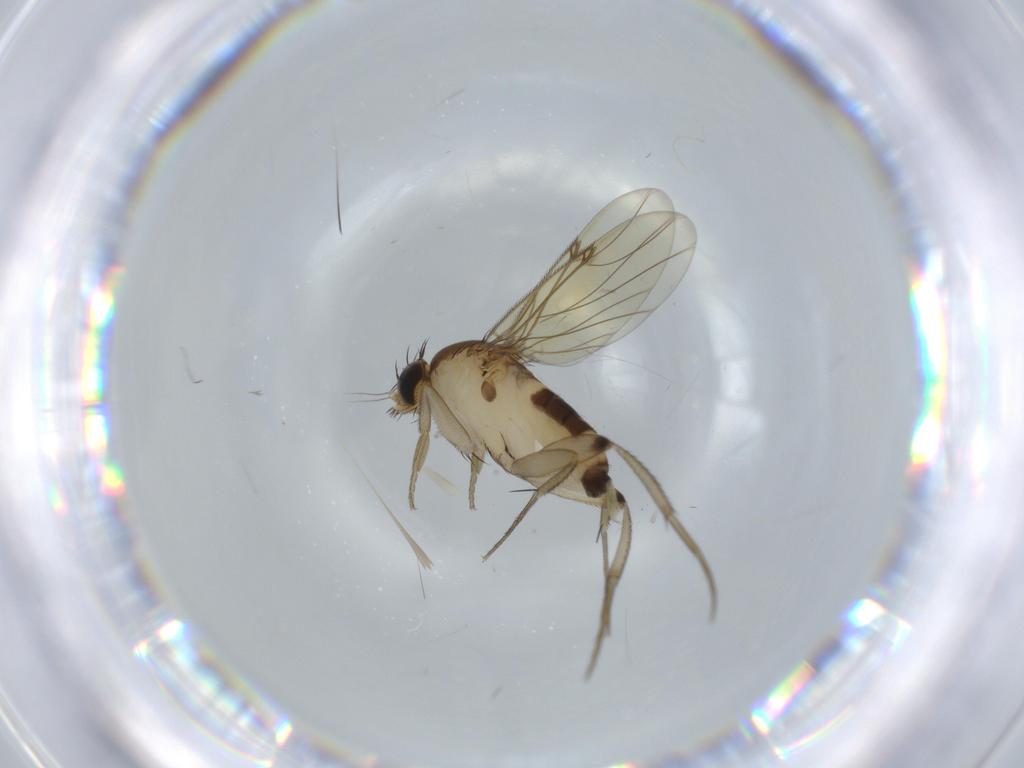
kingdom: Animalia
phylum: Arthropoda
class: Insecta
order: Diptera
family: Phoridae
